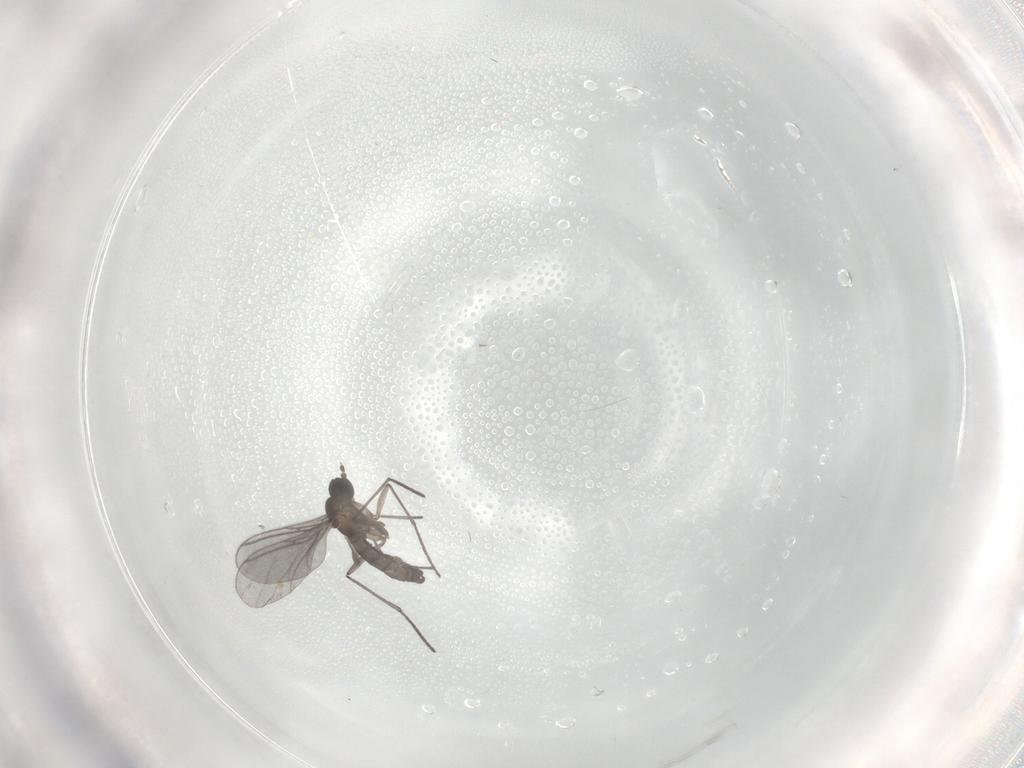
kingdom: Animalia
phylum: Arthropoda
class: Insecta
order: Diptera
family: Ceratopogonidae
